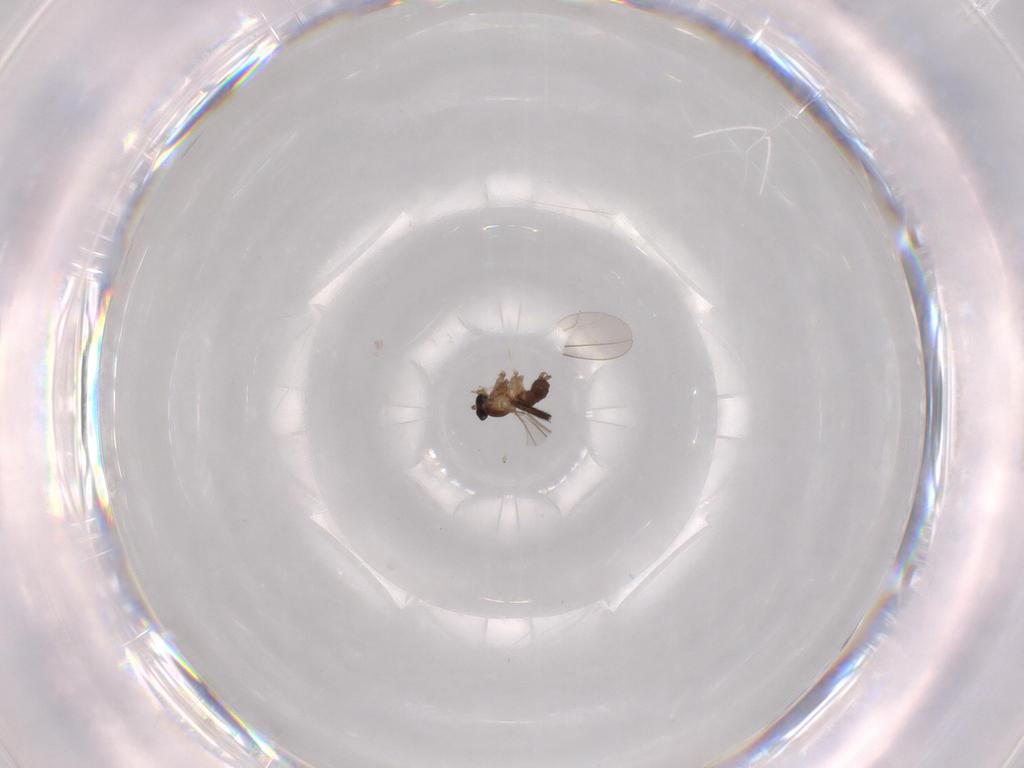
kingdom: Animalia
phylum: Arthropoda
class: Insecta
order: Diptera
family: Cecidomyiidae
